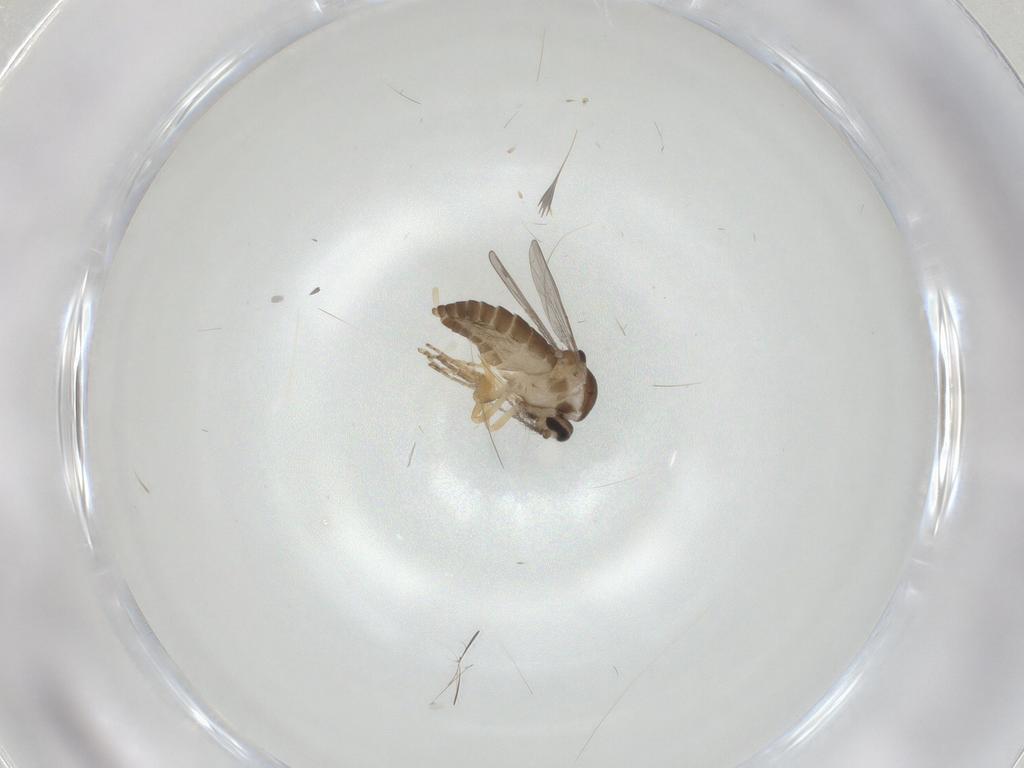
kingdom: Animalia
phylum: Arthropoda
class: Insecta
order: Diptera
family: Ceratopogonidae
